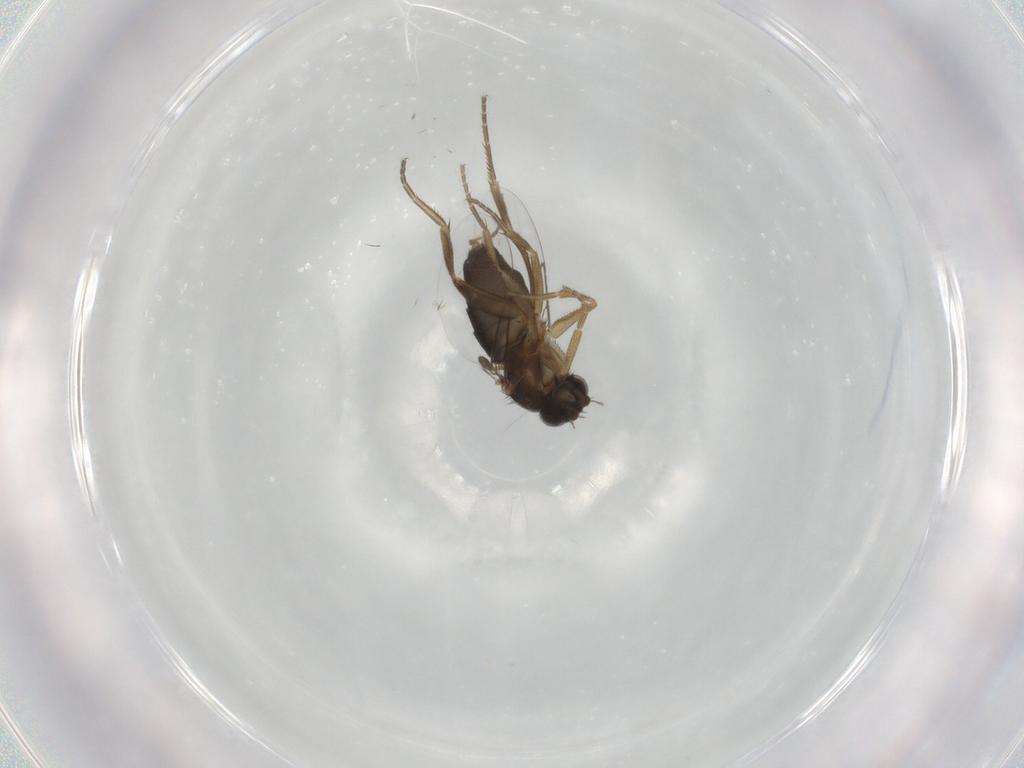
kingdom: Animalia
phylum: Arthropoda
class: Insecta
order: Diptera
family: Phoridae
